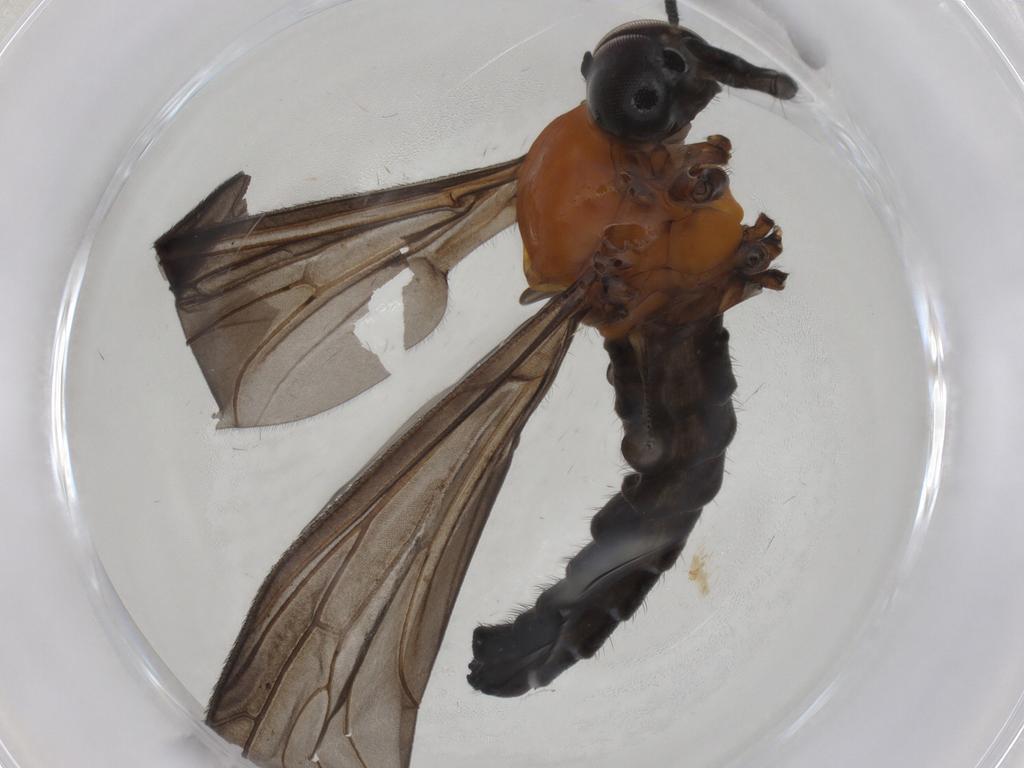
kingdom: Animalia
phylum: Arthropoda
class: Insecta
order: Diptera
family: Bibionidae
